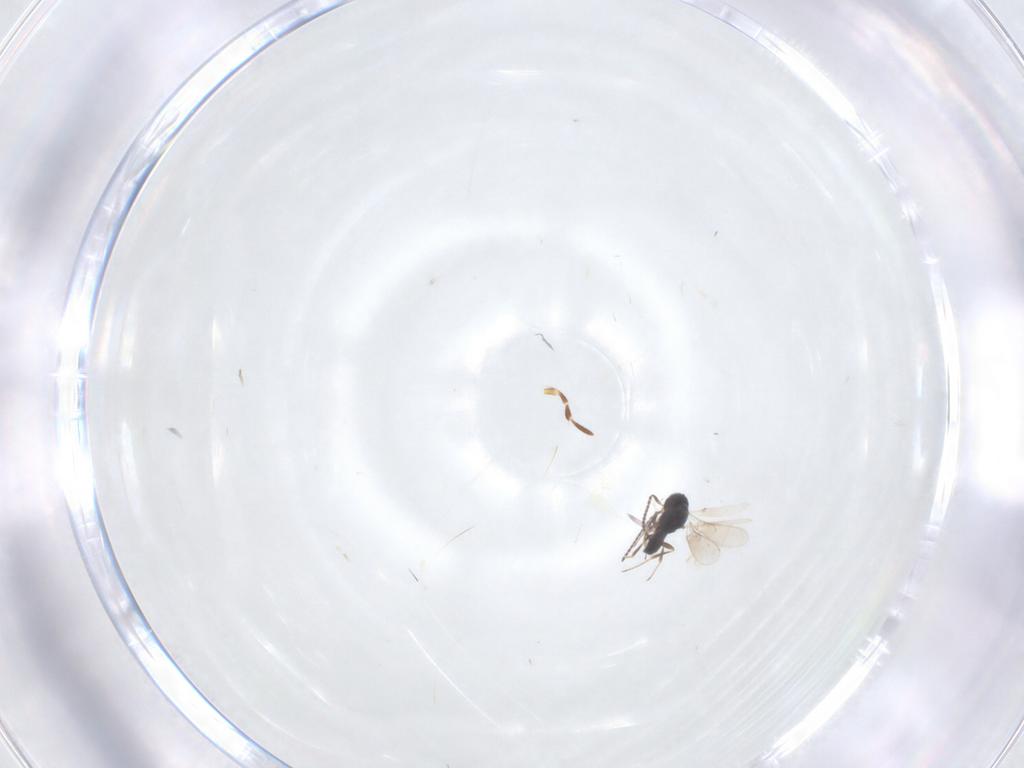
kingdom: Animalia
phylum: Arthropoda
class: Insecta
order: Hymenoptera
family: Scelionidae
